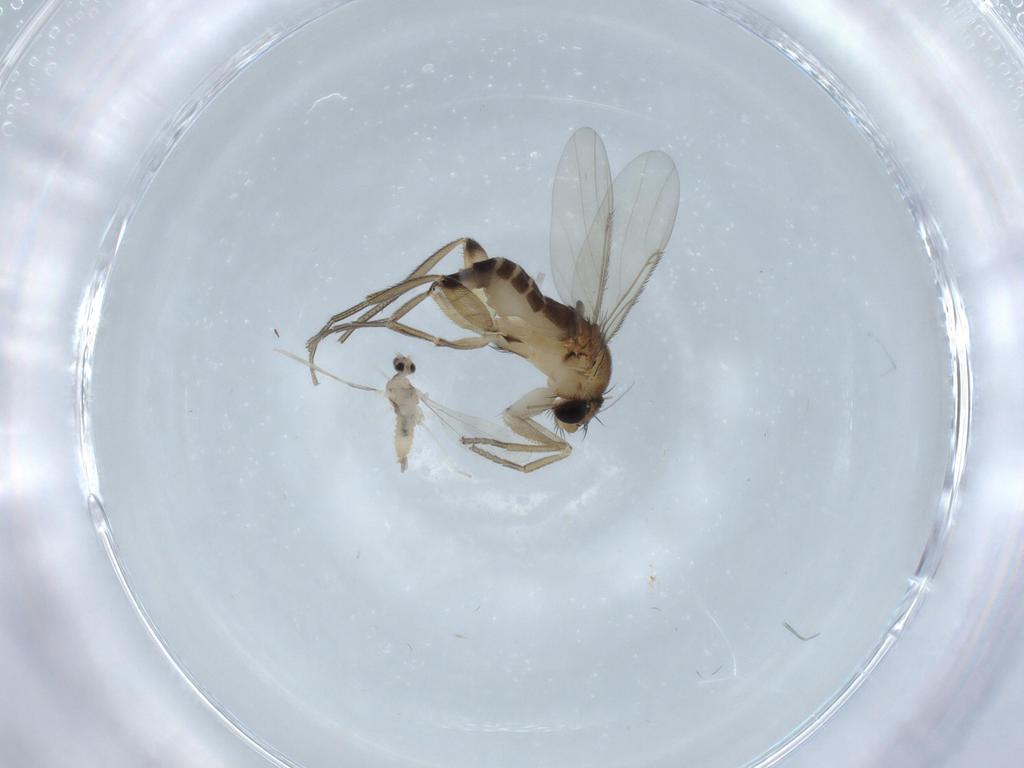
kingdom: Animalia
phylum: Arthropoda
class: Insecta
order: Diptera
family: Phoridae
